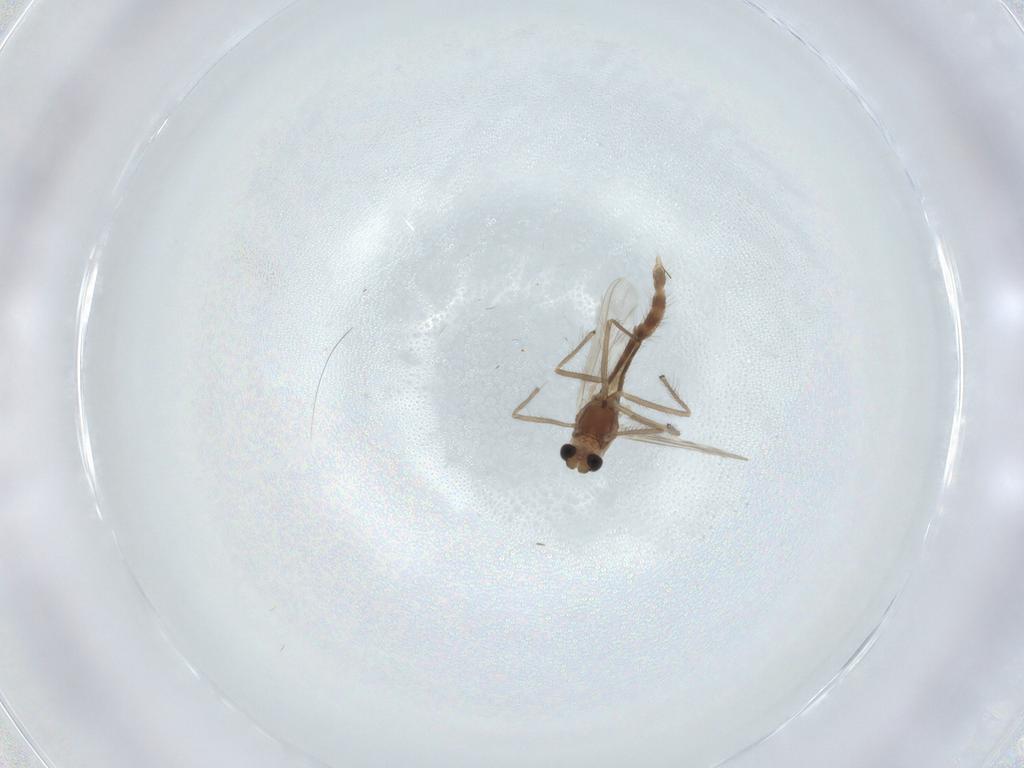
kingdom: Animalia
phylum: Arthropoda
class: Insecta
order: Diptera
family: Chironomidae
